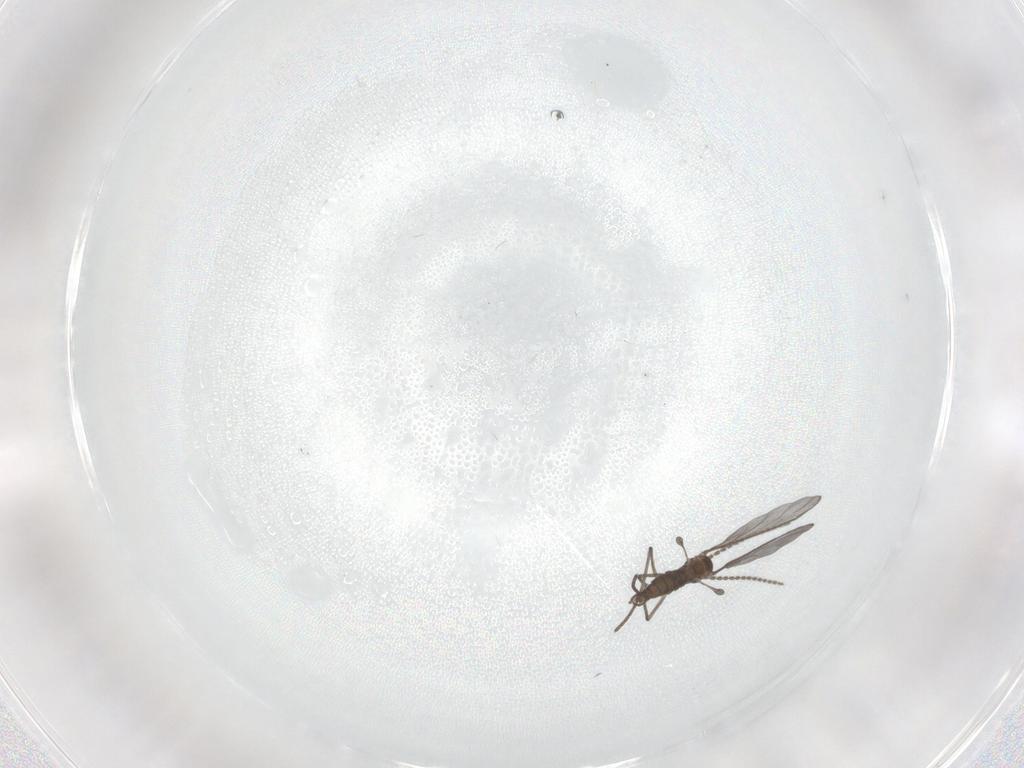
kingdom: Animalia
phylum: Arthropoda
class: Insecta
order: Diptera
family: Sciaridae
